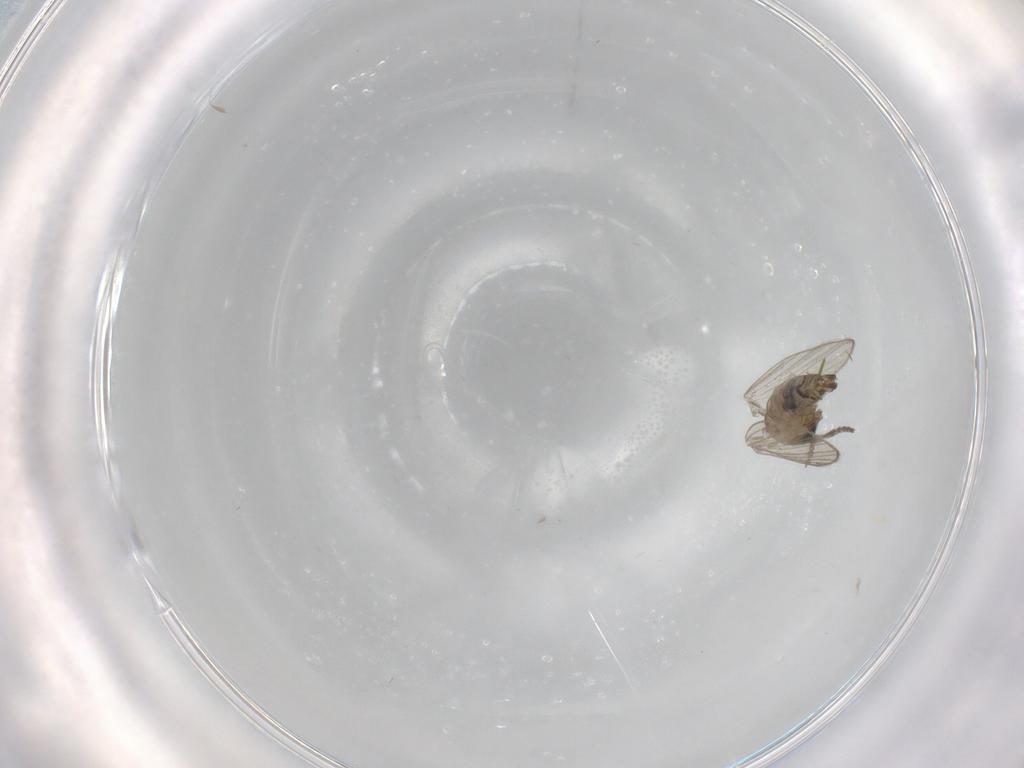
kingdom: Animalia
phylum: Arthropoda
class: Insecta
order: Diptera
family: Psychodidae
